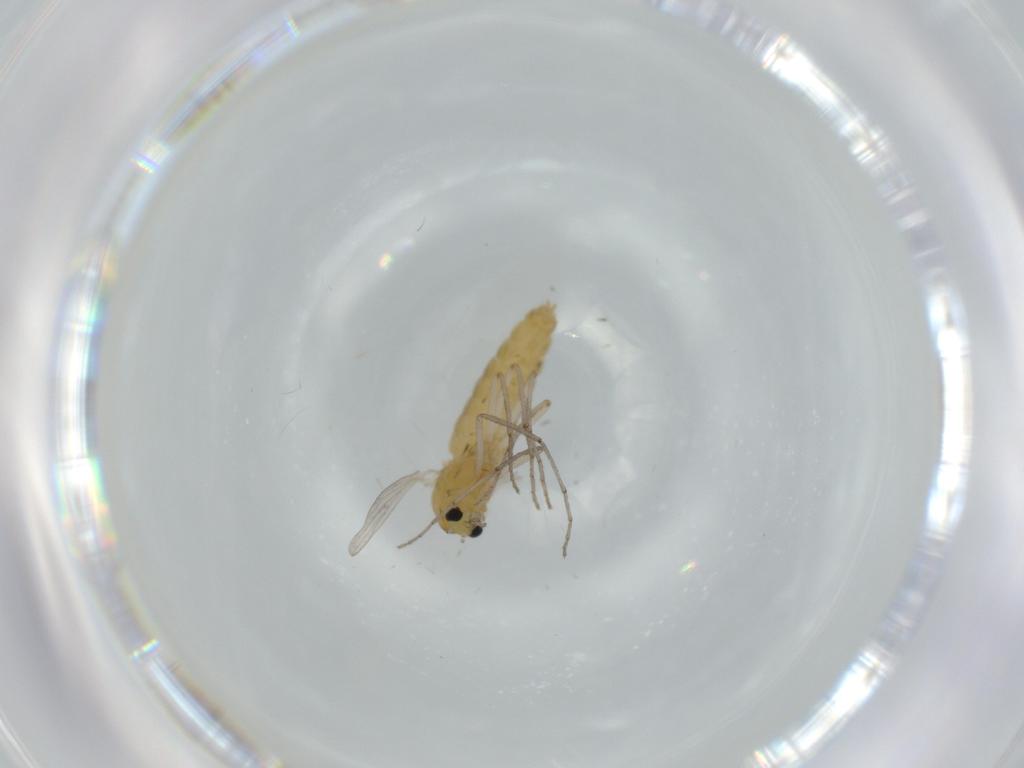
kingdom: Animalia
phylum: Arthropoda
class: Insecta
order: Diptera
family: Chironomidae
